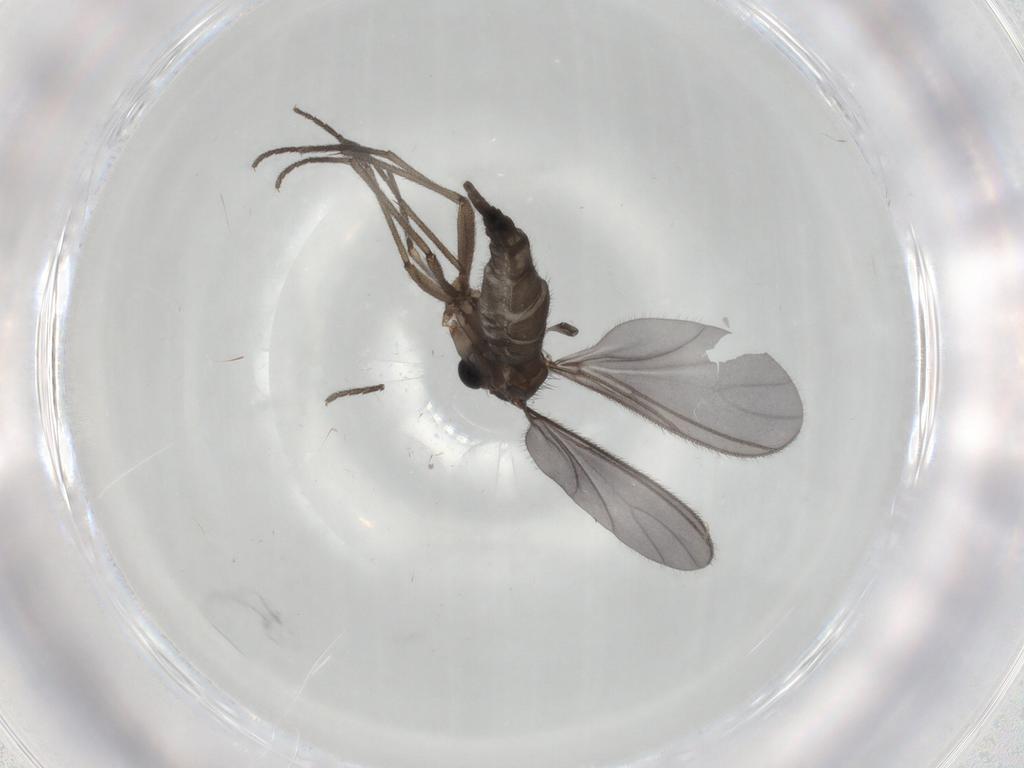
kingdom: Animalia
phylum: Arthropoda
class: Insecta
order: Diptera
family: Sciaridae
